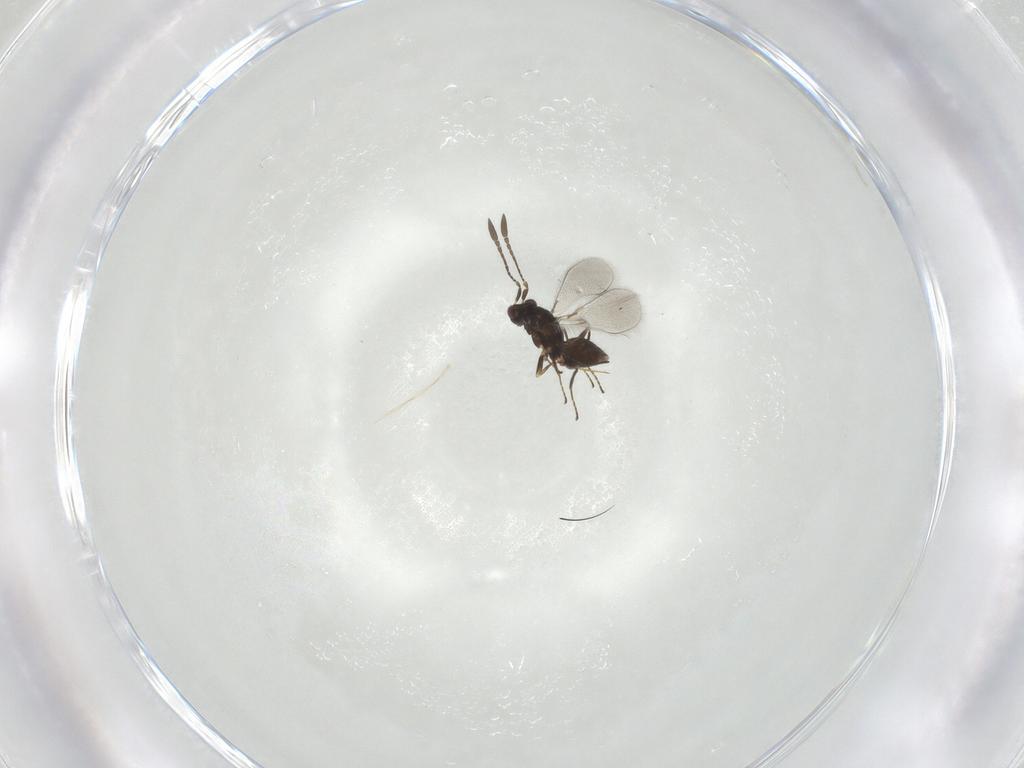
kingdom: Animalia
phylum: Arthropoda
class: Insecta
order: Hymenoptera
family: Mymaridae
